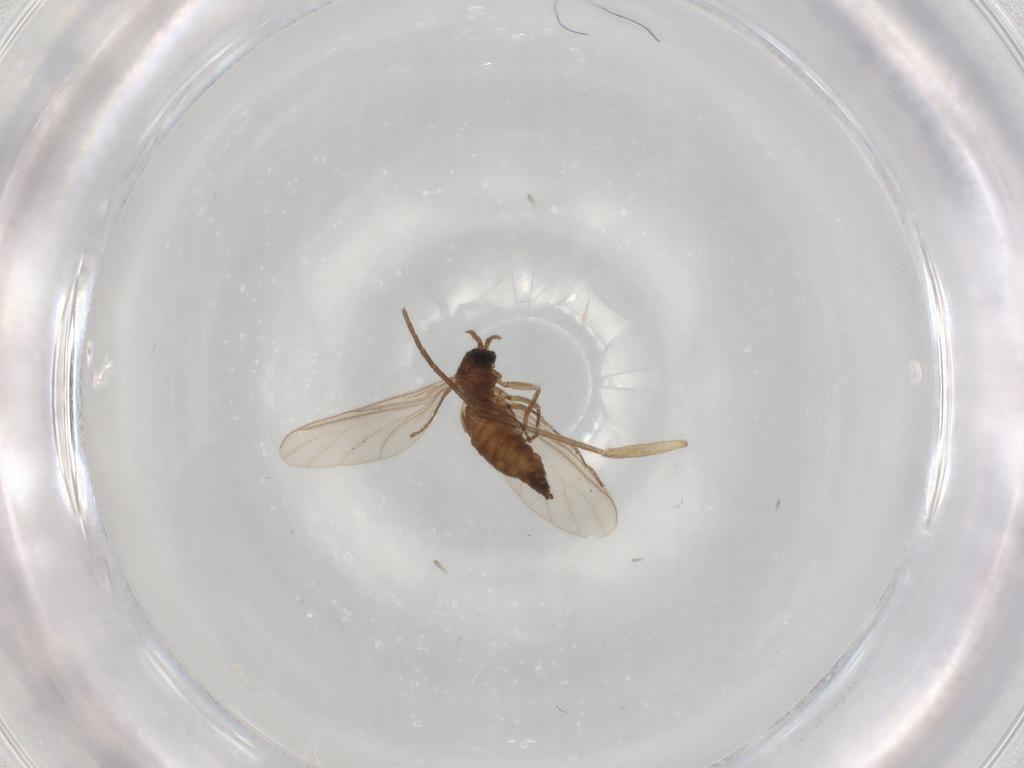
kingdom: Animalia
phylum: Arthropoda
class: Insecta
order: Diptera
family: Sciaridae
